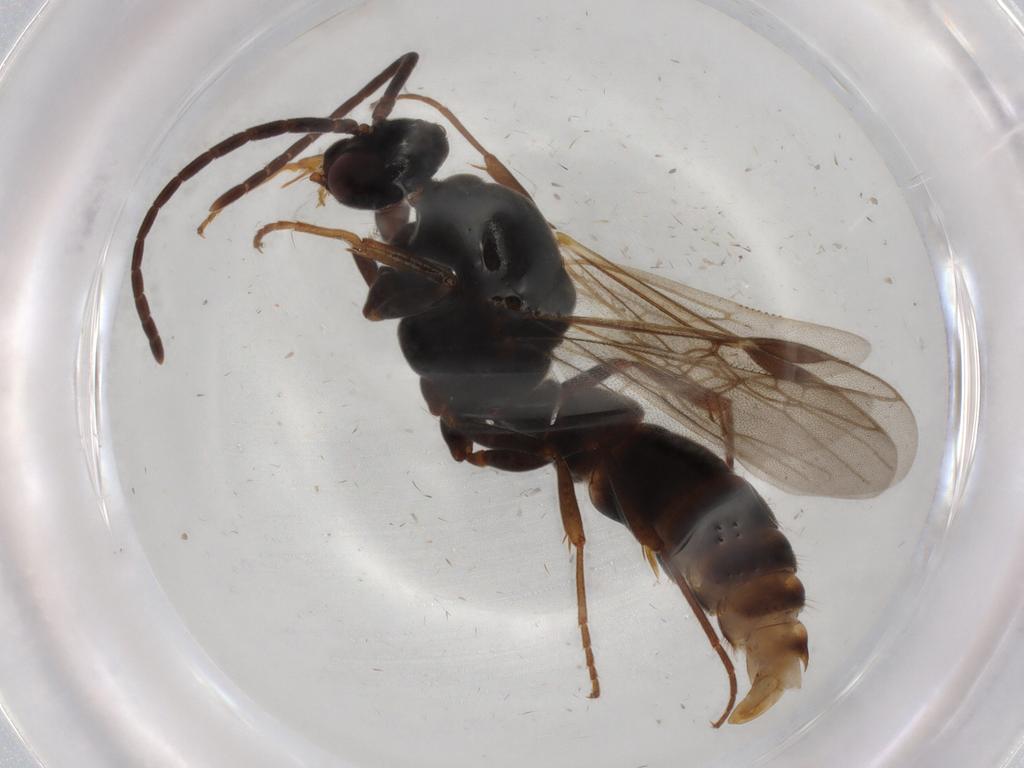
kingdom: Animalia
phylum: Arthropoda
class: Insecta
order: Hymenoptera
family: Formicidae
